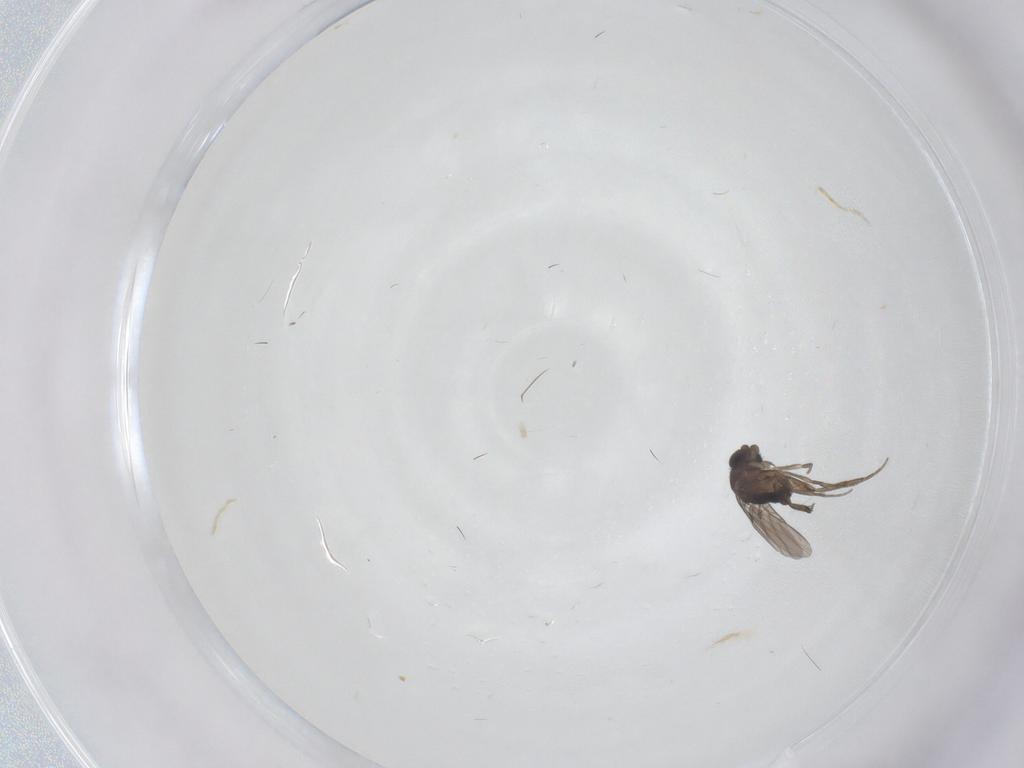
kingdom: Animalia
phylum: Arthropoda
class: Insecta
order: Diptera
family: Phoridae
